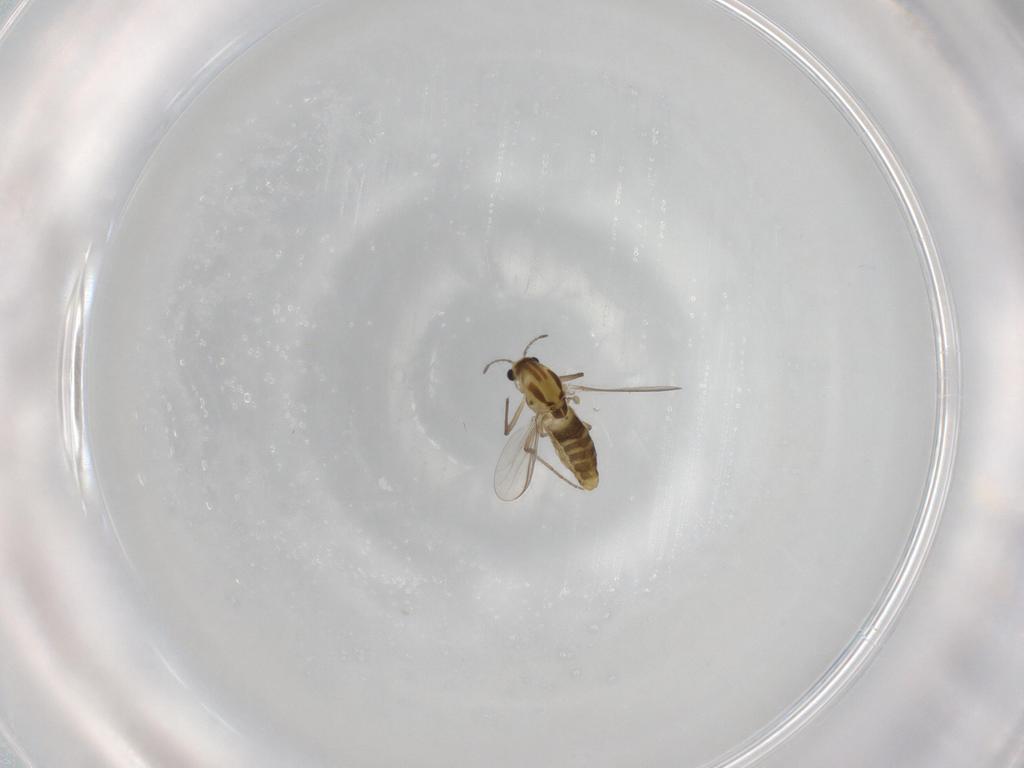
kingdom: Animalia
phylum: Arthropoda
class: Insecta
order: Diptera
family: Chironomidae
